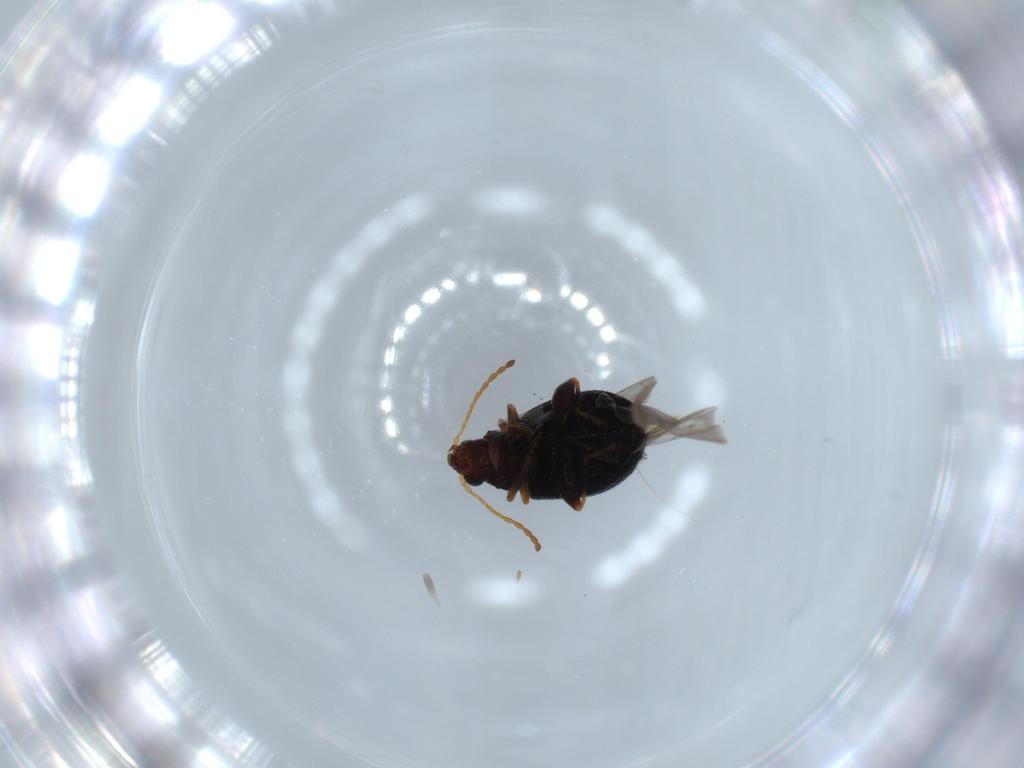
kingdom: Animalia
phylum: Arthropoda
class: Insecta
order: Coleoptera
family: Chrysomelidae
